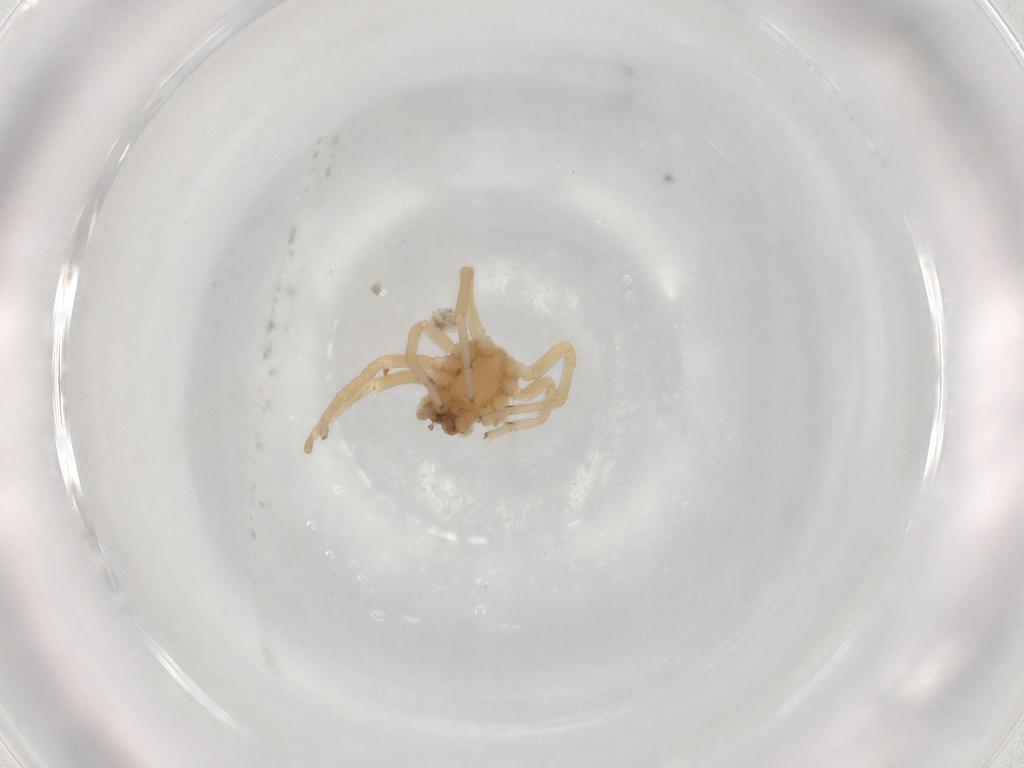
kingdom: Animalia
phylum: Arthropoda
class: Arachnida
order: Araneae
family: Trachelidae
